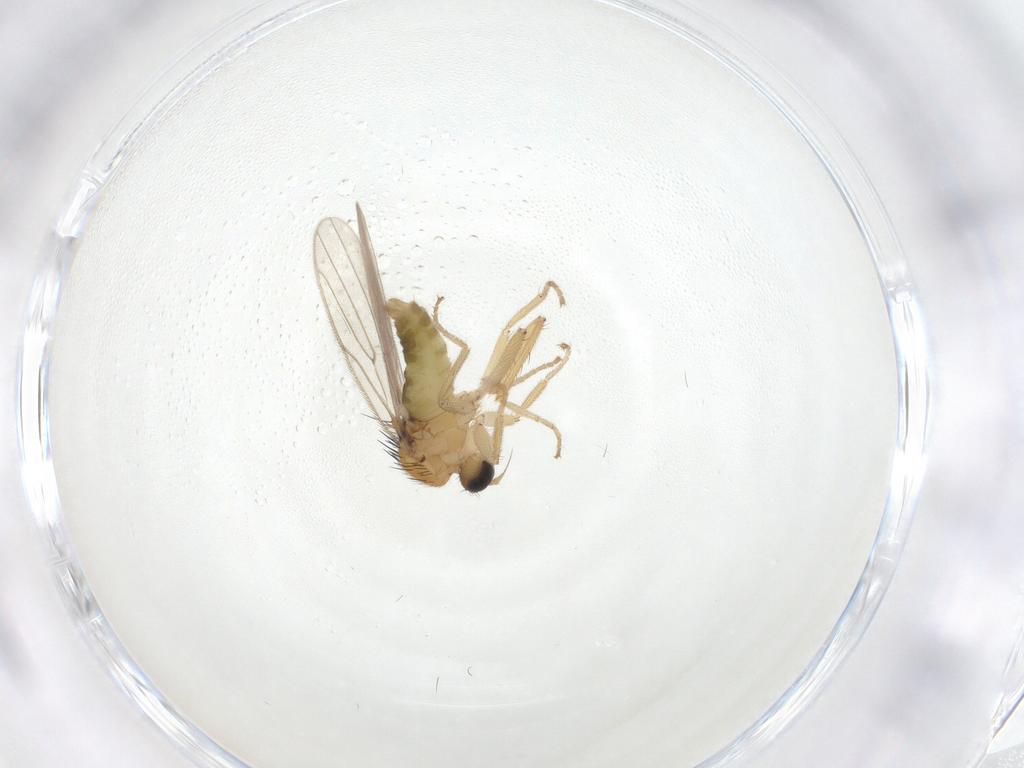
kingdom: Animalia
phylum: Arthropoda
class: Insecta
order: Diptera
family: Hybotidae
